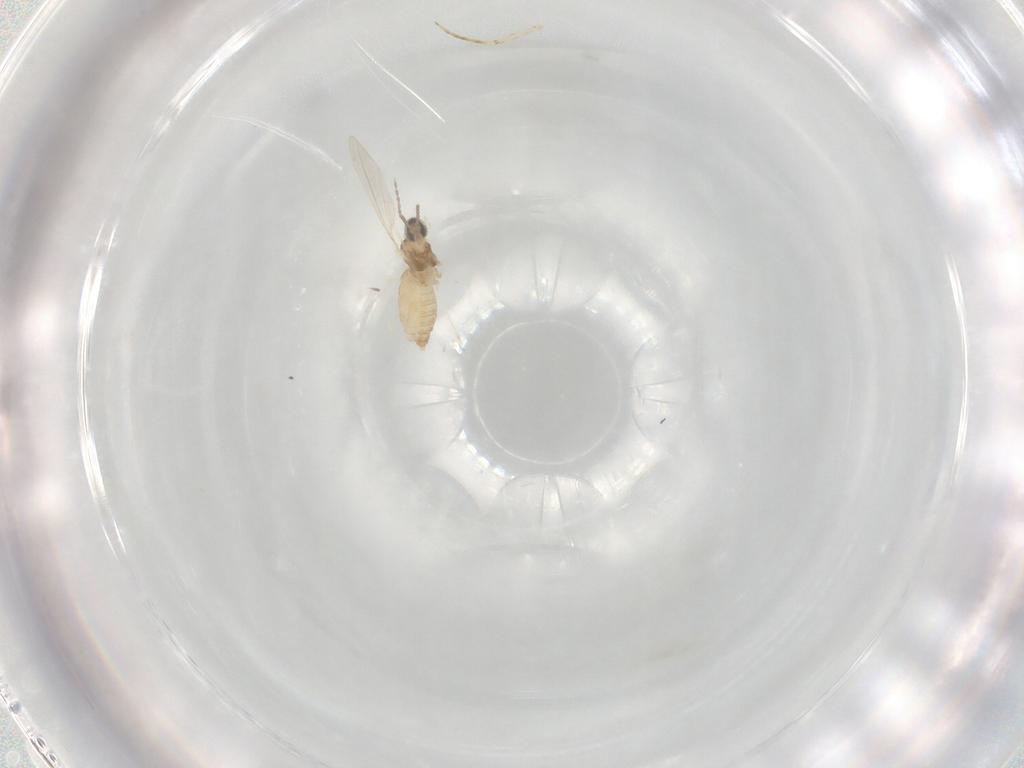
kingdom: Animalia
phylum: Arthropoda
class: Insecta
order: Diptera
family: Cecidomyiidae
